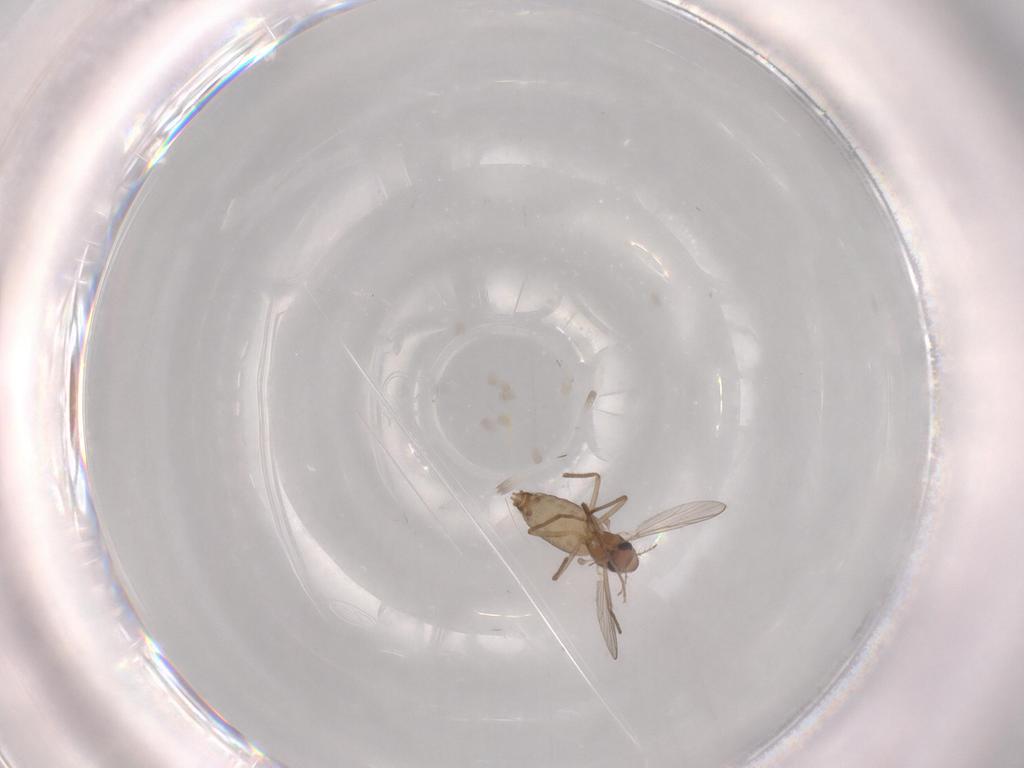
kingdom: Animalia
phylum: Arthropoda
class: Insecta
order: Diptera
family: Chironomidae
